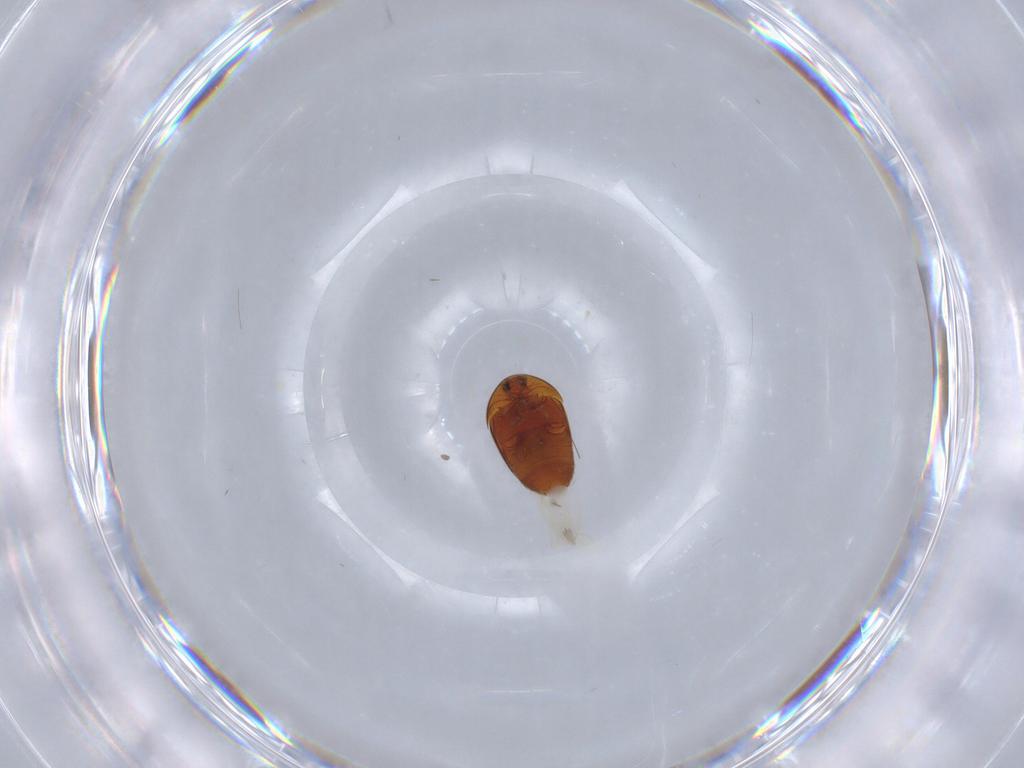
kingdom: Animalia
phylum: Arthropoda
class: Insecta
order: Coleoptera
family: Corylophidae
